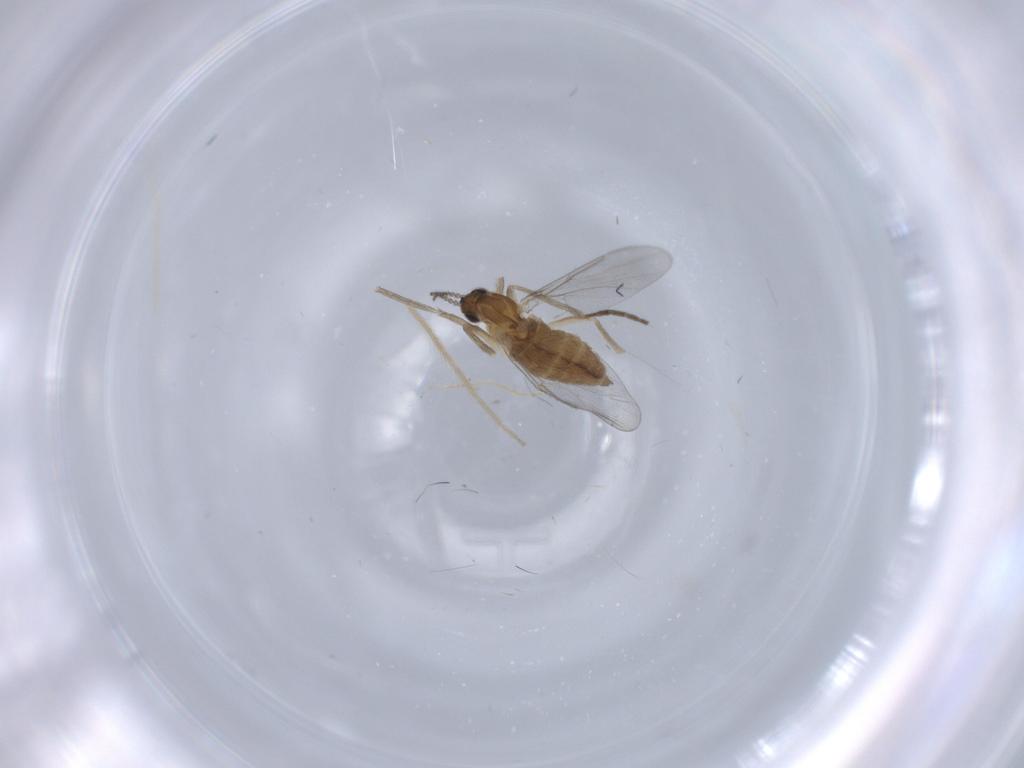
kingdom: Animalia
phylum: Arthropoda
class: Insecta
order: Diptera
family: Cecidomyiidae
